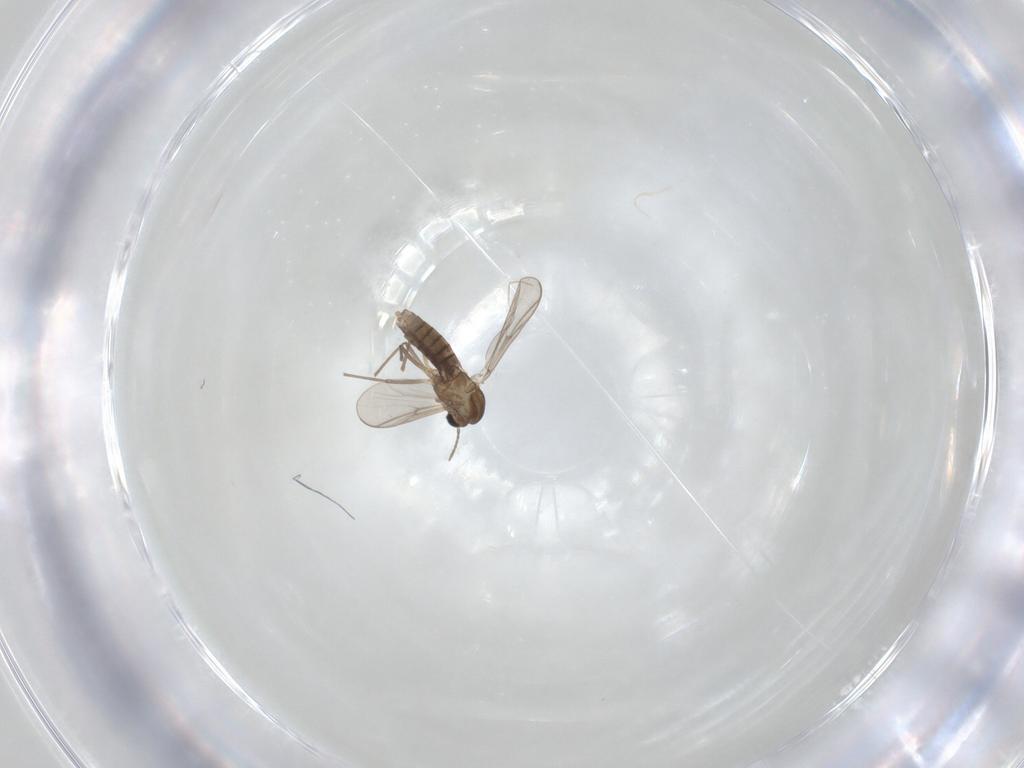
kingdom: Animalia
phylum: Arthropoda
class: Insecta
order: Diptera
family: Chironomidae
